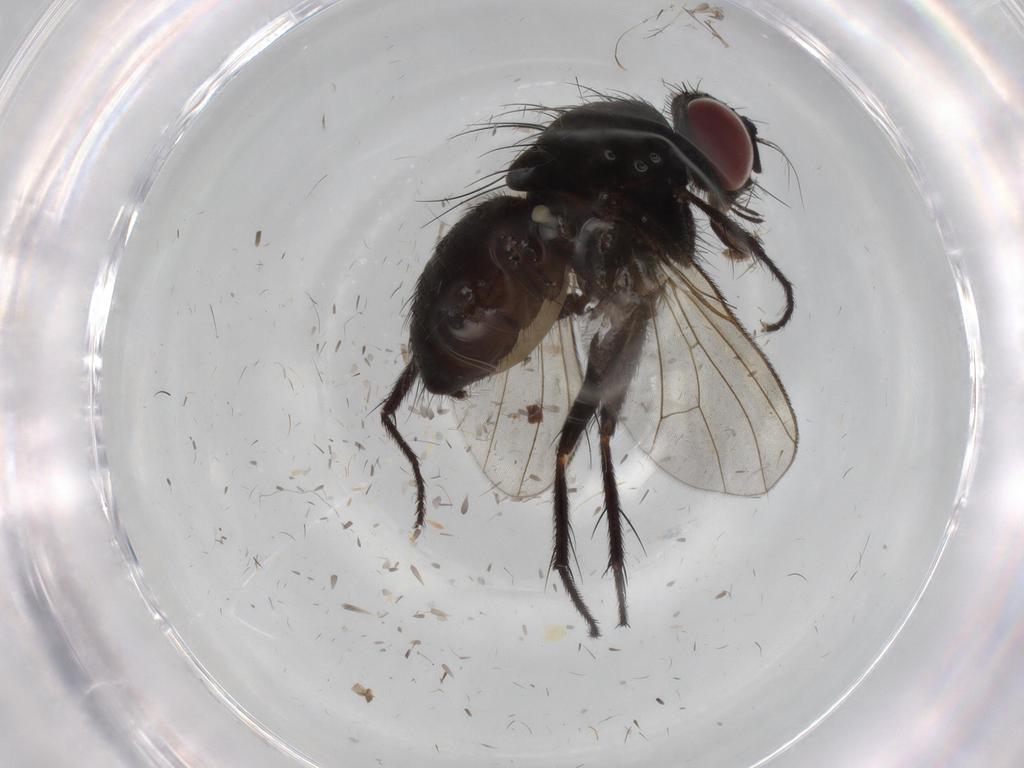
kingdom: Animalia
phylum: Arthropoda
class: Insecta
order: Diptera
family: Muscidae
